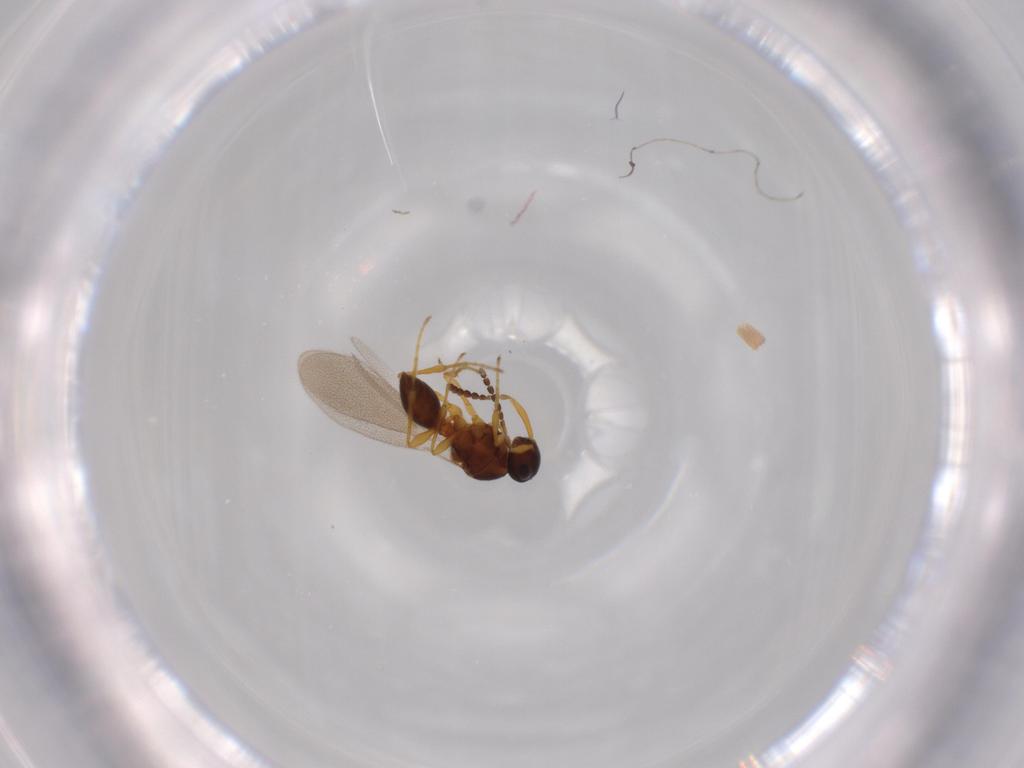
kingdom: Animalia
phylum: Arthropoda
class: Insecta
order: Diptera
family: Mythicomyiidae
